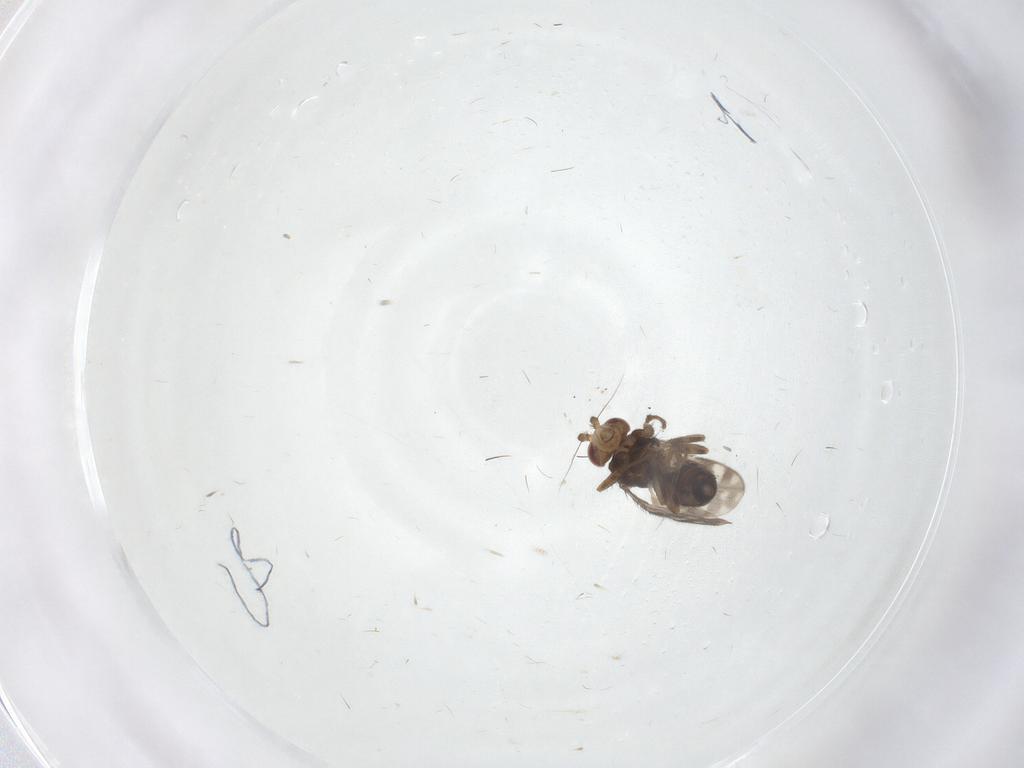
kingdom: Animalia
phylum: Arthropoda
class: Insecta
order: Diptera
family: Sphaeroceridae
